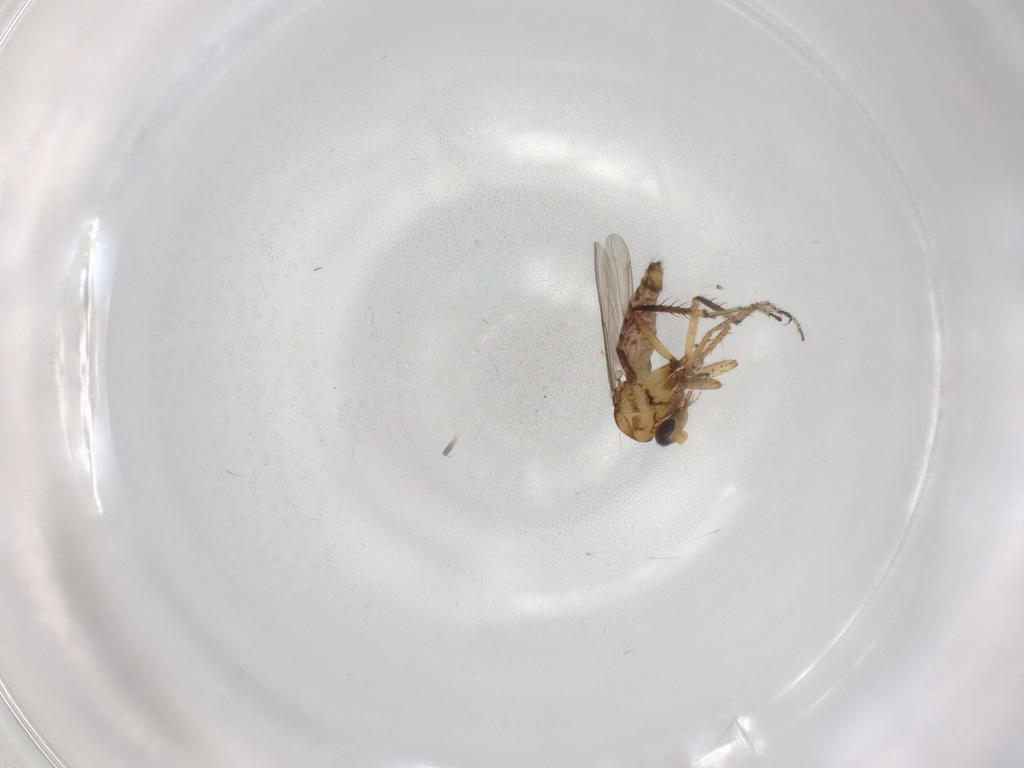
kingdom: Animalia
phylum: Arthropoda
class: Insecta
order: Diptera
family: Ceratopogonidae
